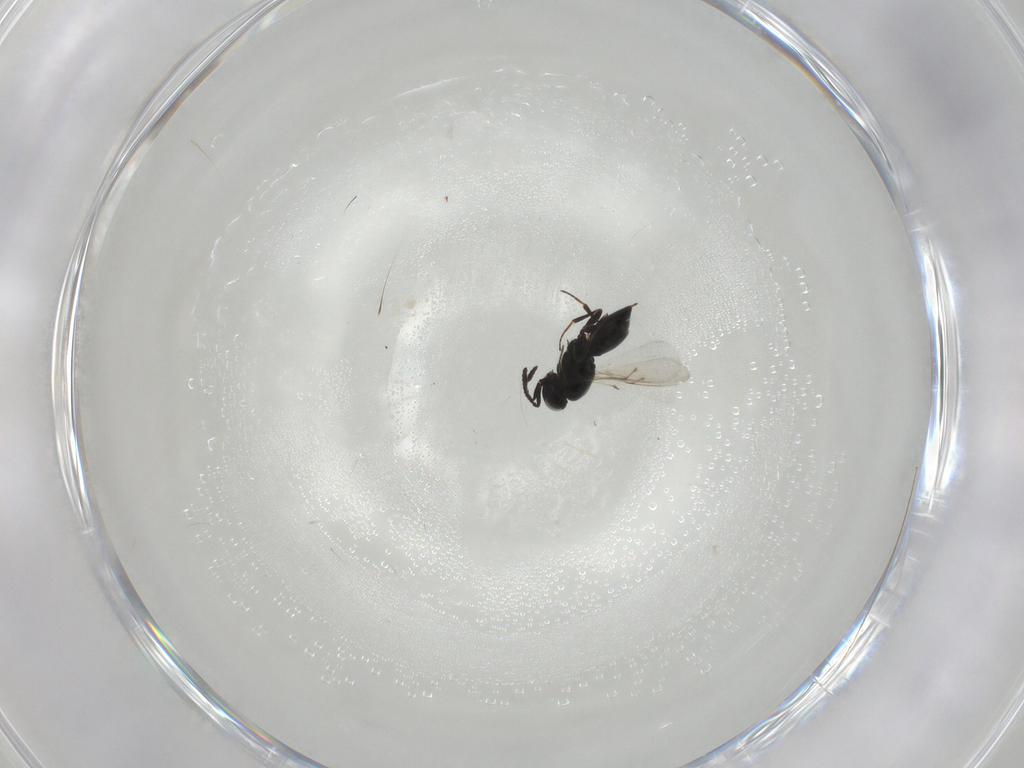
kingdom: Animalia
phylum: Arthropoda
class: Insecta
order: Hymenoptera
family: Scelionidae
